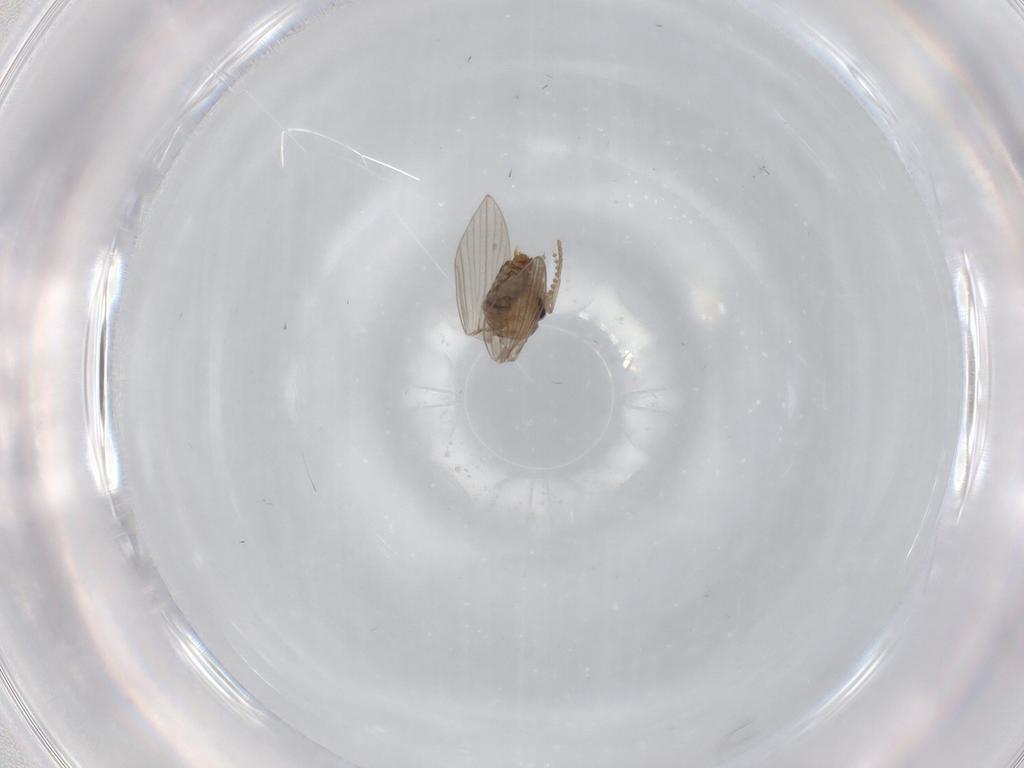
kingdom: Animalia
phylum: Arthropoda
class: Insecta
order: Diptera
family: Psychodidae
